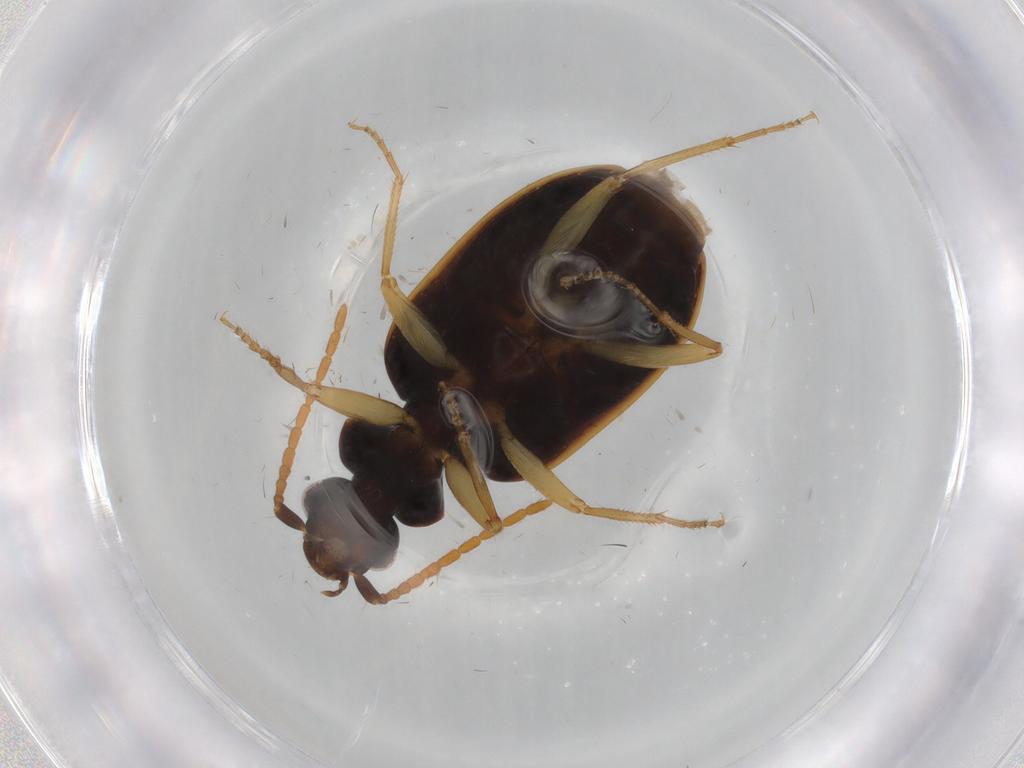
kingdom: Animalia
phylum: Arthropoda
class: Insecta
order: Coleoptera
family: Carabidae
